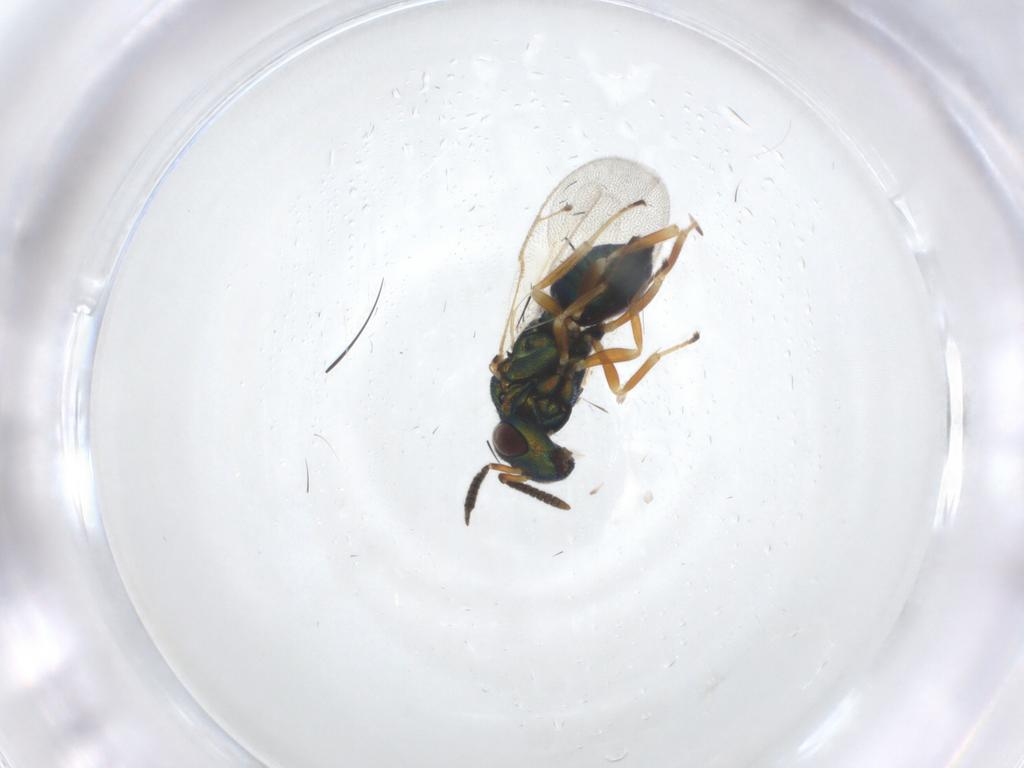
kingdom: Animalia
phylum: Arthropoda
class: Insecta
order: Hymenoptera
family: Pteromalidae
